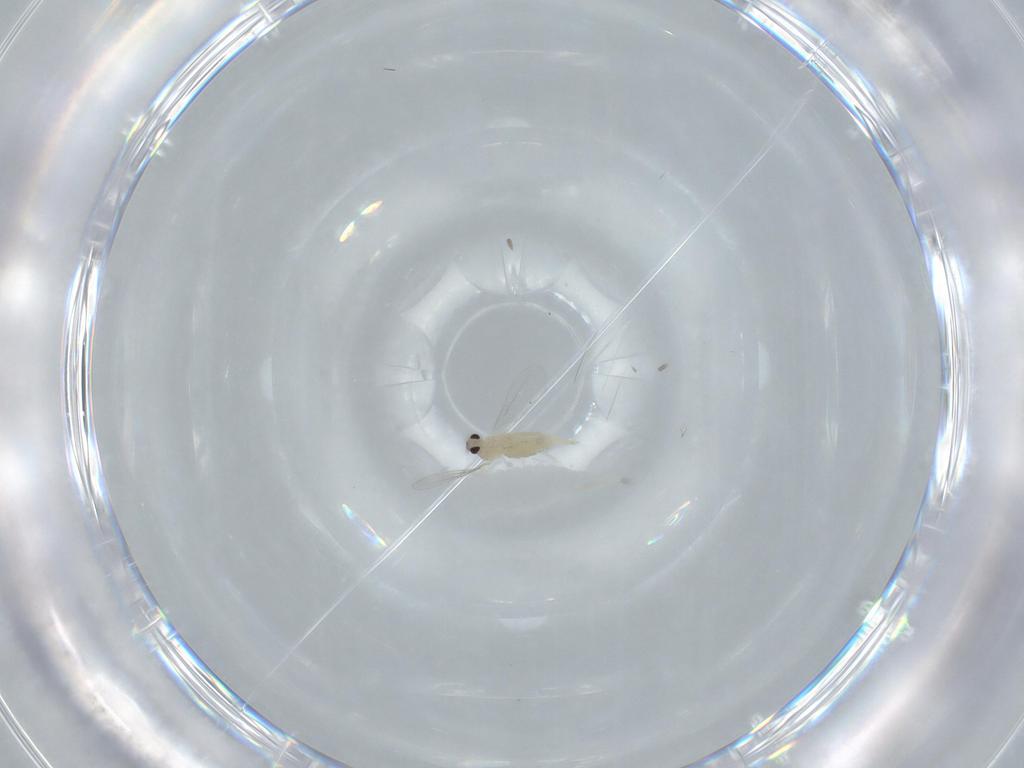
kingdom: Animalia
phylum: Arthropoda
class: Insecta
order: Diptera
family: Cecidomyiidae
